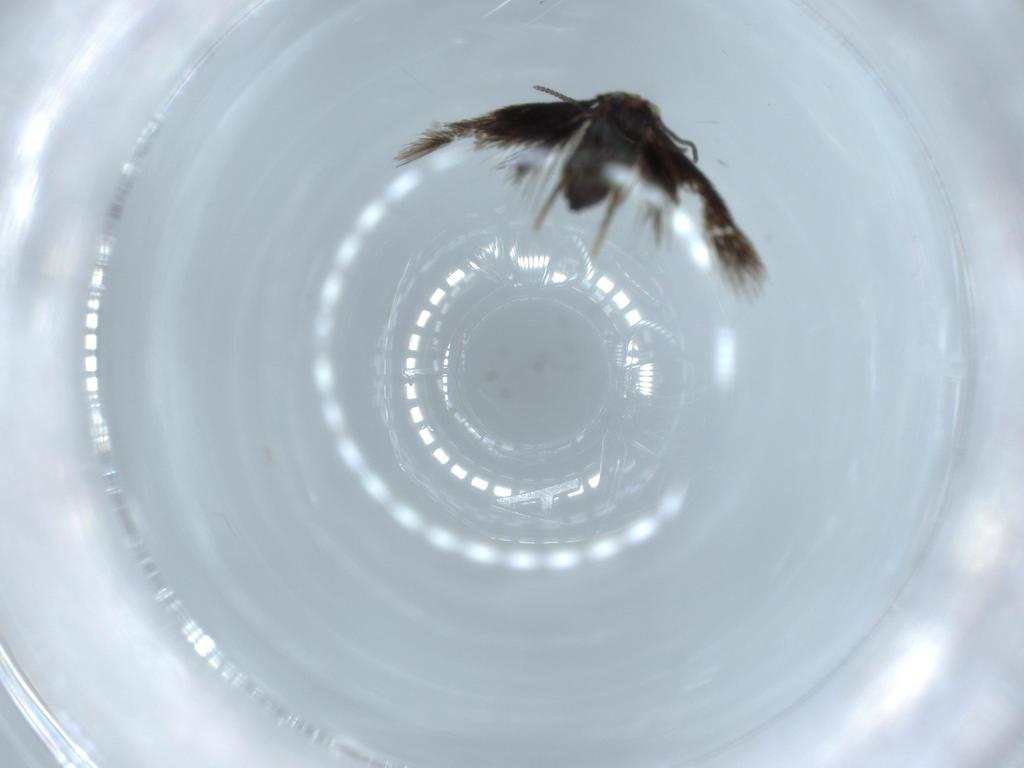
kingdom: Animalia
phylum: Arthropoda
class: Insecta
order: Lepidoptera
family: Nepticulidae
